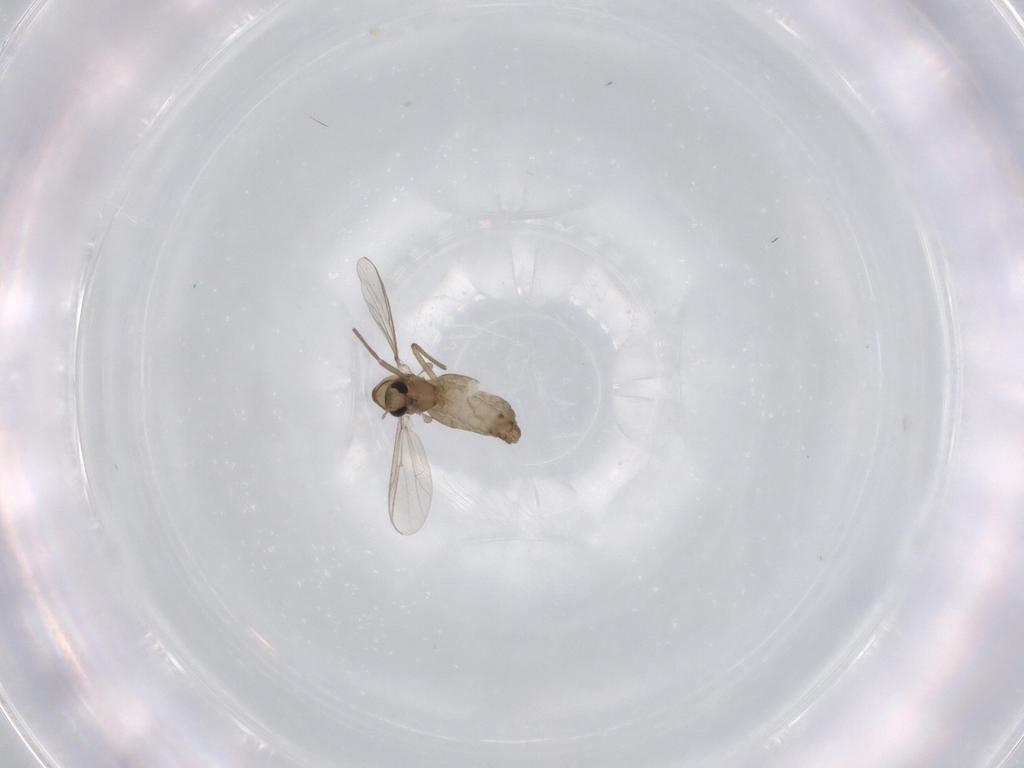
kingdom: Animalia
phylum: Arthropoda
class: Insecta
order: Diptera
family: Chironomidae
